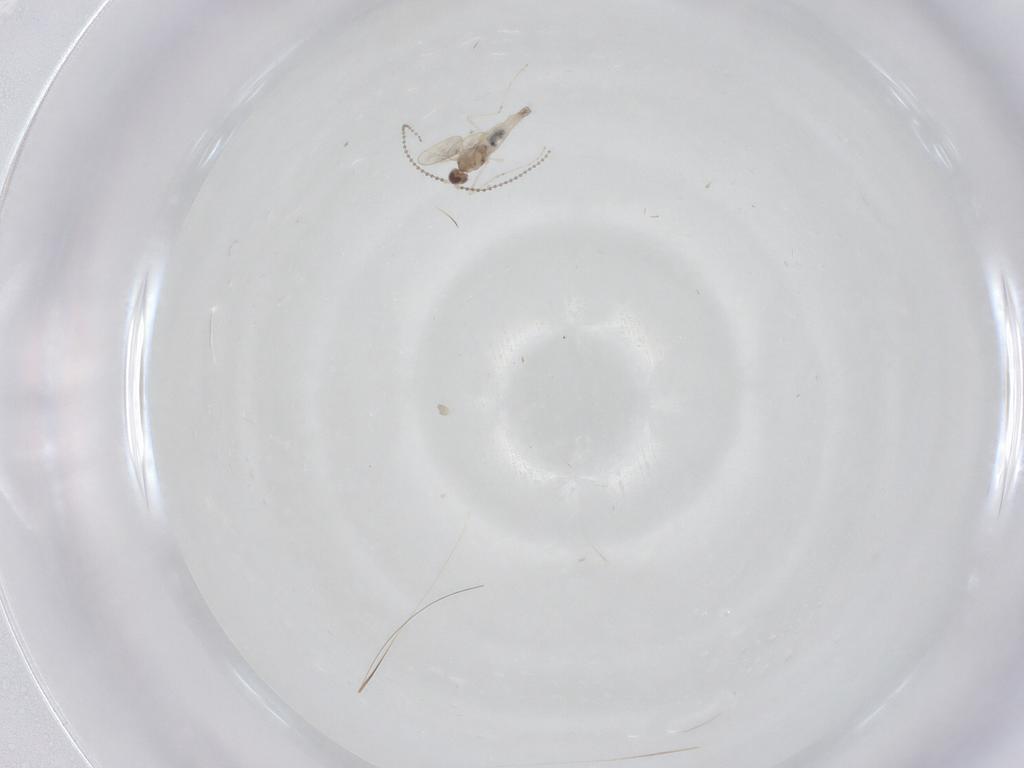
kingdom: Animalia
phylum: Arthropoda
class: Insecta
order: Diptera
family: Cecidomyiidae
